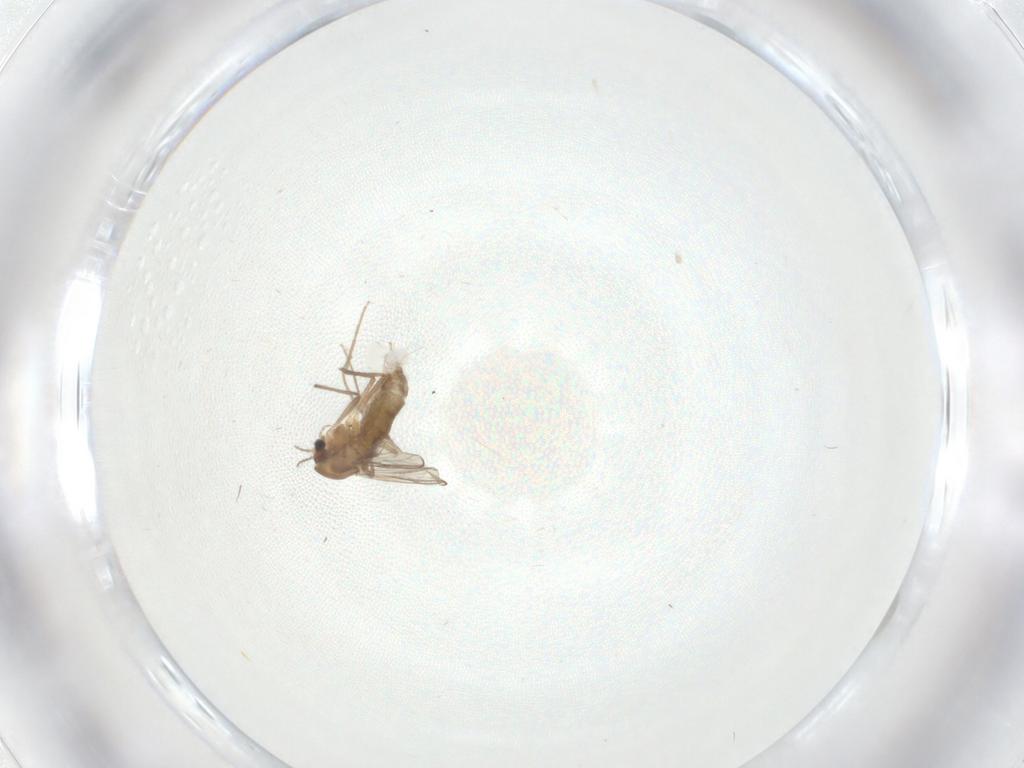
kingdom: Animalia
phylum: Arthropoda
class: Insecta
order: Diptera
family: Chironomidae
